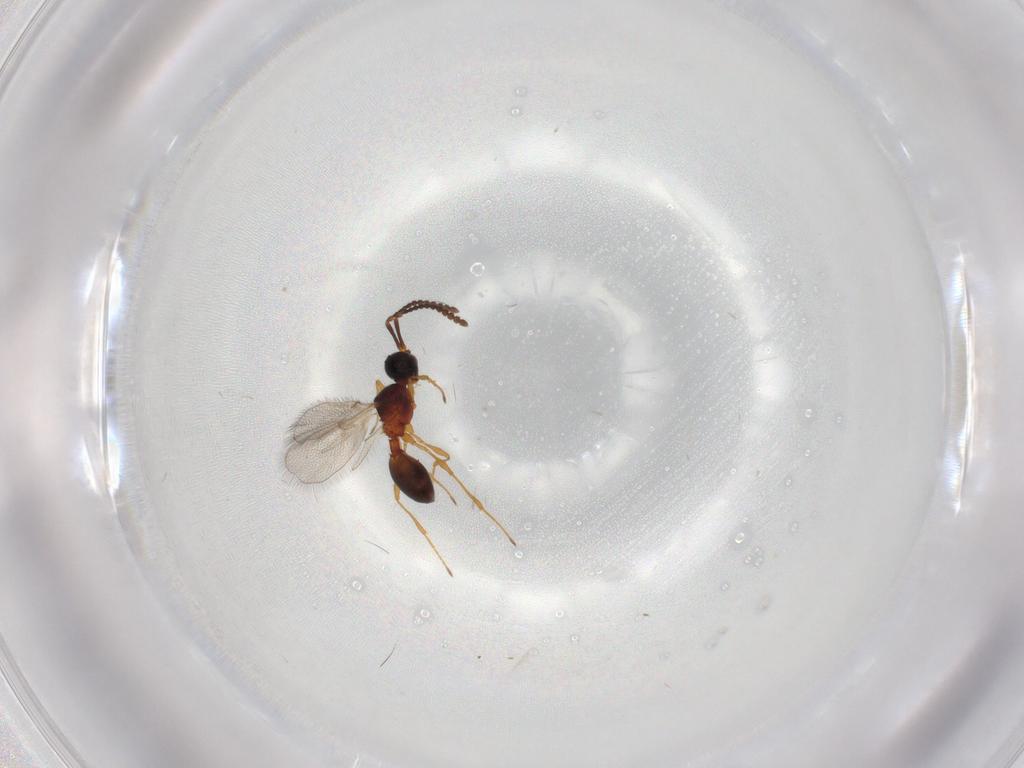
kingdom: Animalia
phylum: Arthropoda
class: Insecta
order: Hymenoptera
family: Diapriidae
